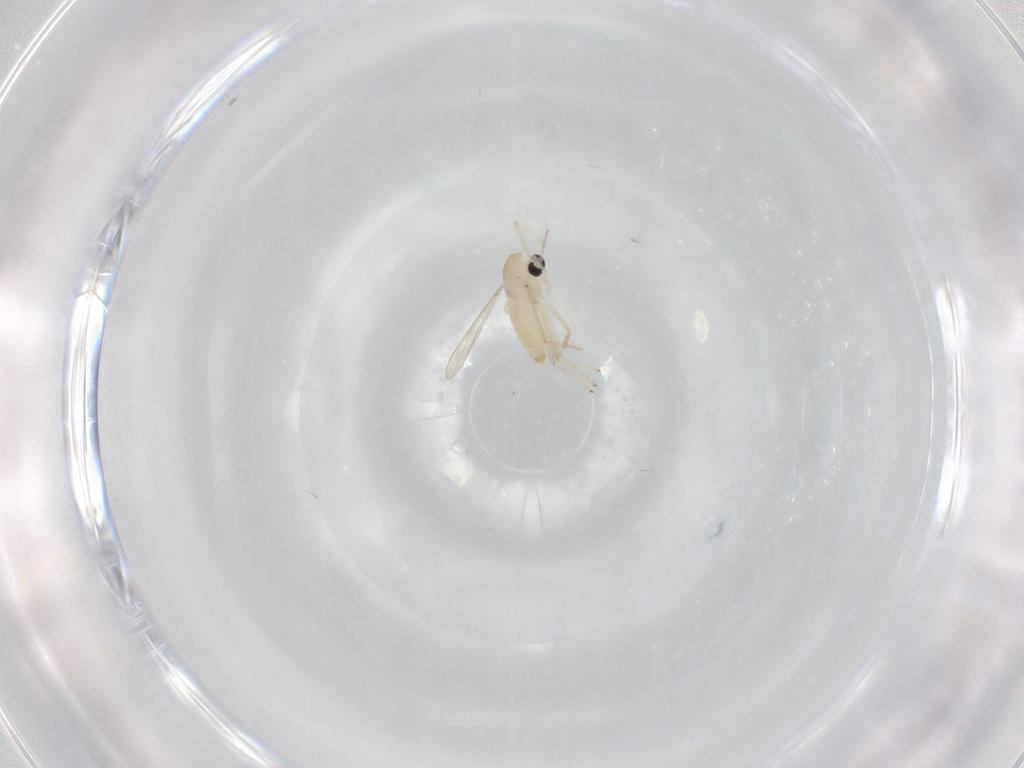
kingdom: Animalia
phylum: Arthropoda
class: Insecta
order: Diptera
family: Chironomidae
